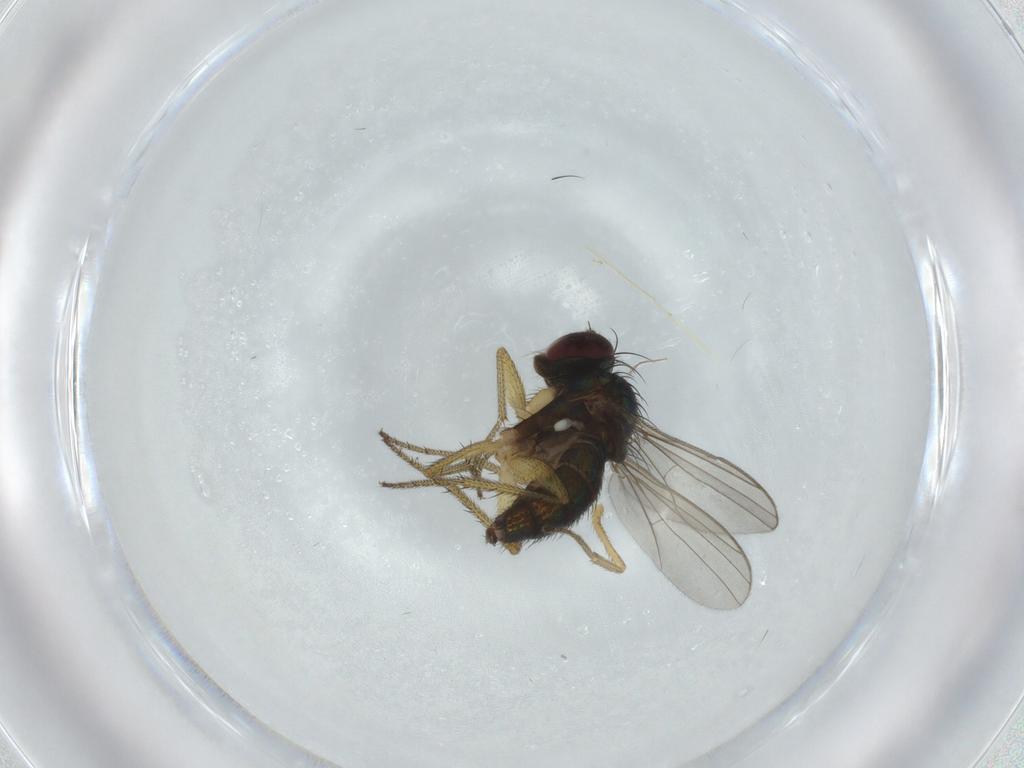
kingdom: Animalia
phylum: Arthropoda
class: Insecta
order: Diptera
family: Dolichopodidae
